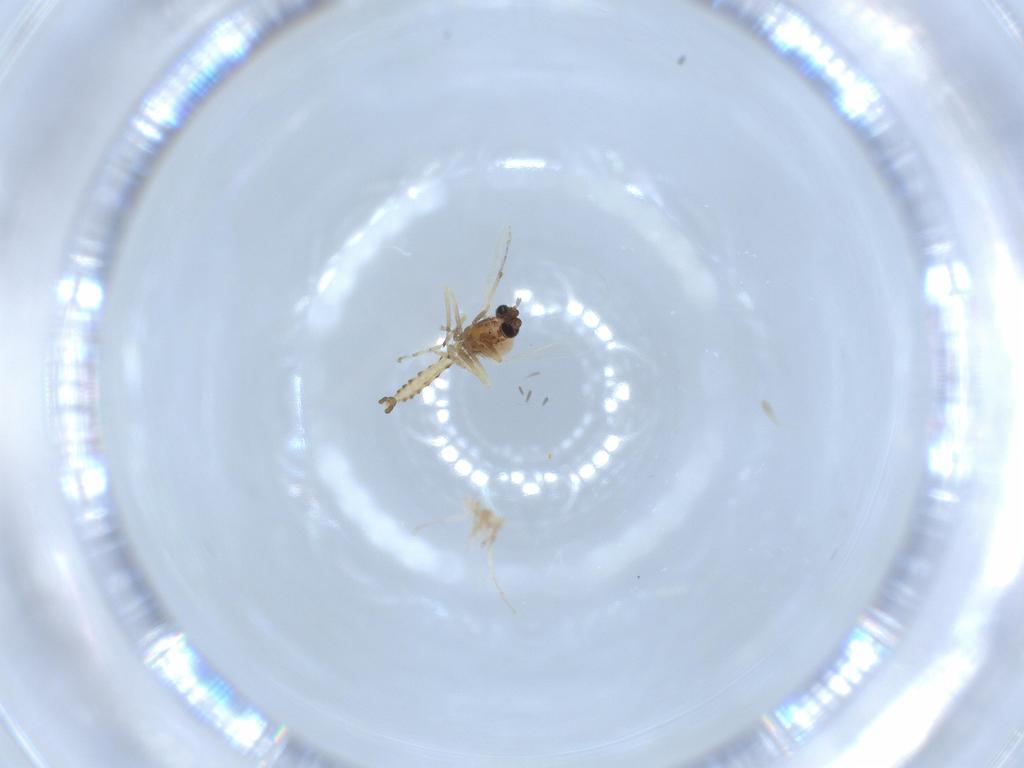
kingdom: Animalia
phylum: Arthropoda
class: Insecta
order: Diptera
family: Ceratopogonidae
